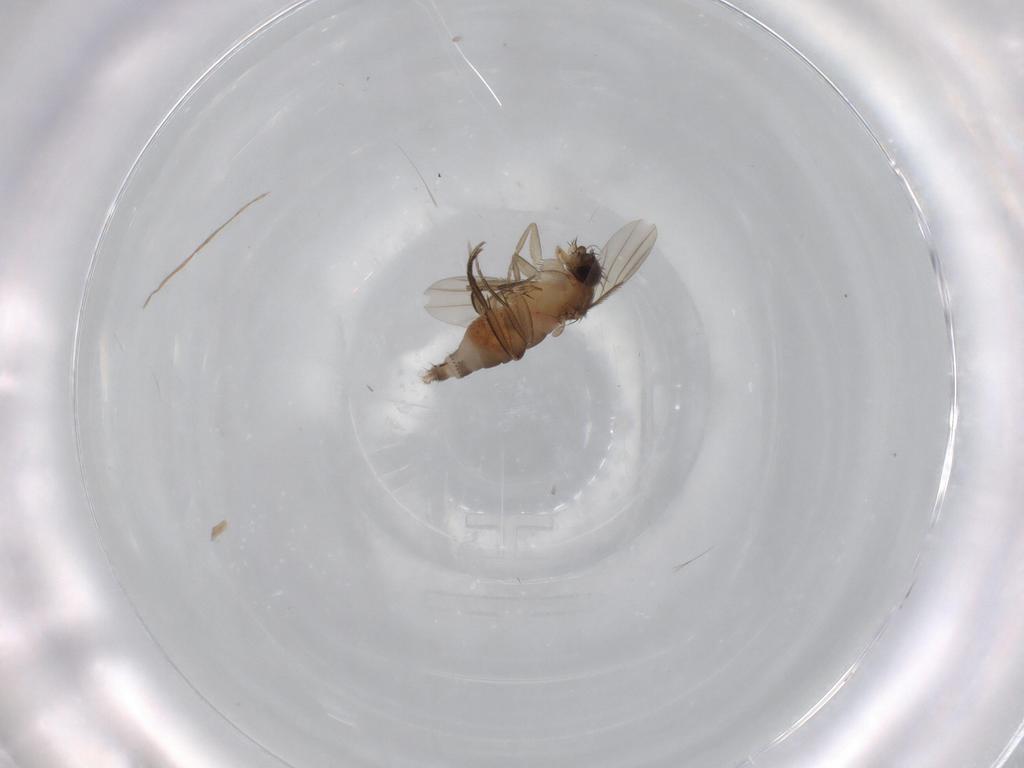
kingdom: Animalia
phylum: Arthropoda
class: Insecta
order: Diptera
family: Phoridae
